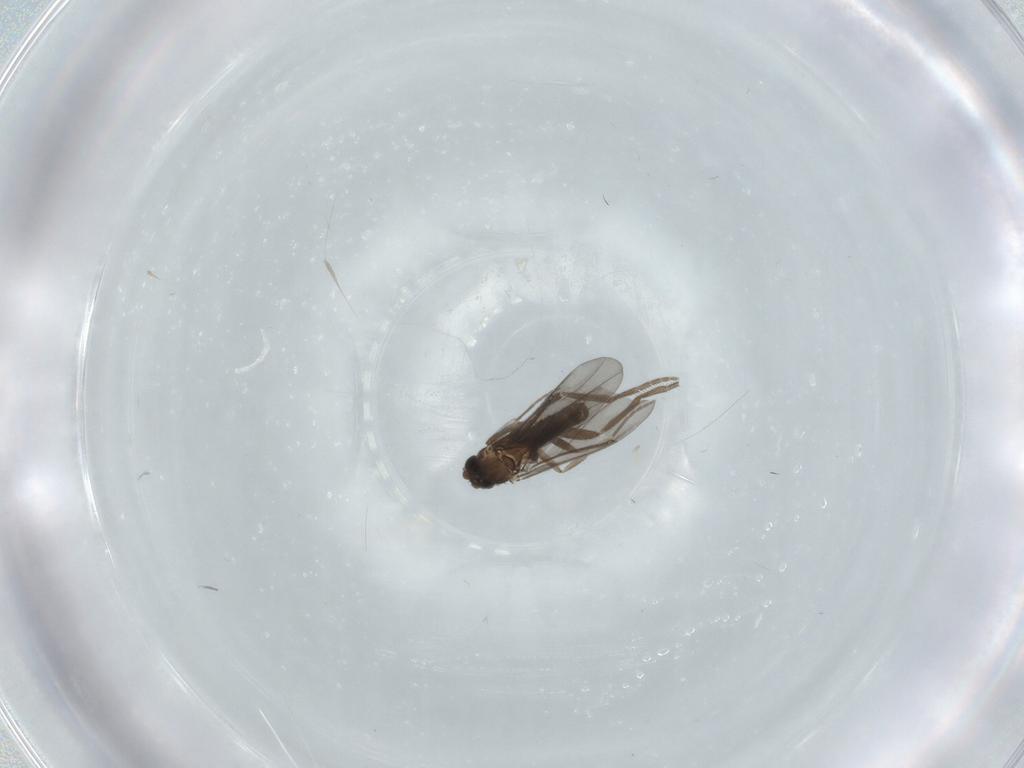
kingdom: Animalia
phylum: Arthropoda
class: Insecta
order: Diptera
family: Phoridae
